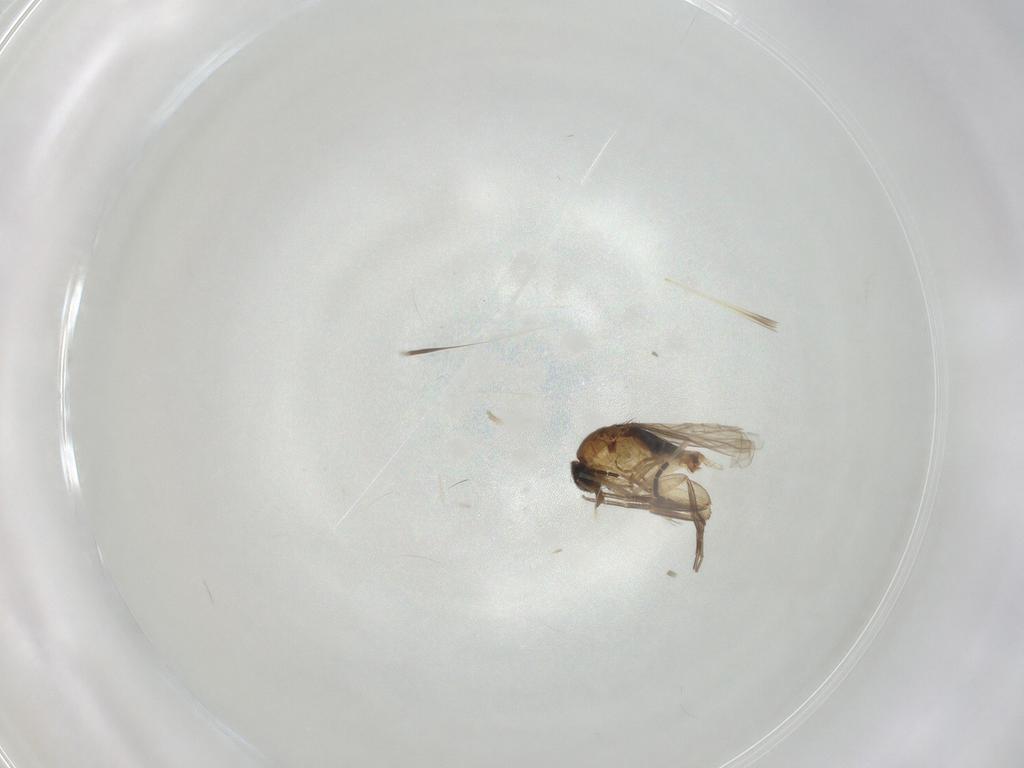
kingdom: Animalia
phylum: Arthropoda
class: Insecta
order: Diptera
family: Phoridae
